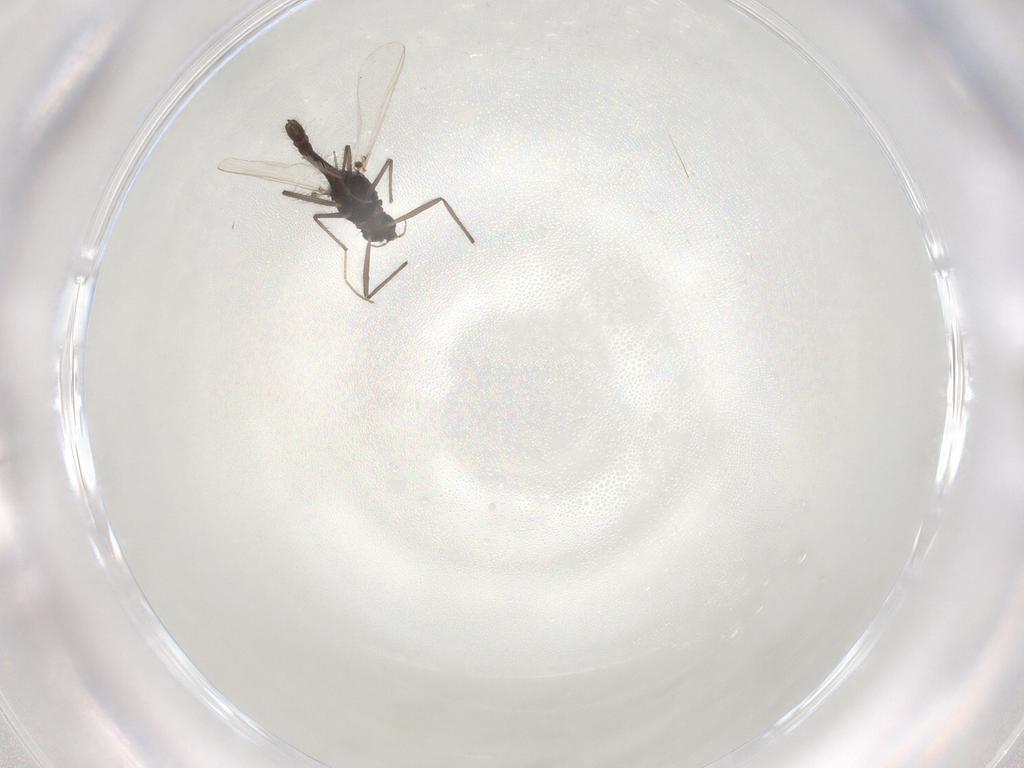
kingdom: Animalia
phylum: Arthropoda
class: Insecta
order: Diptera
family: Chironomidae
